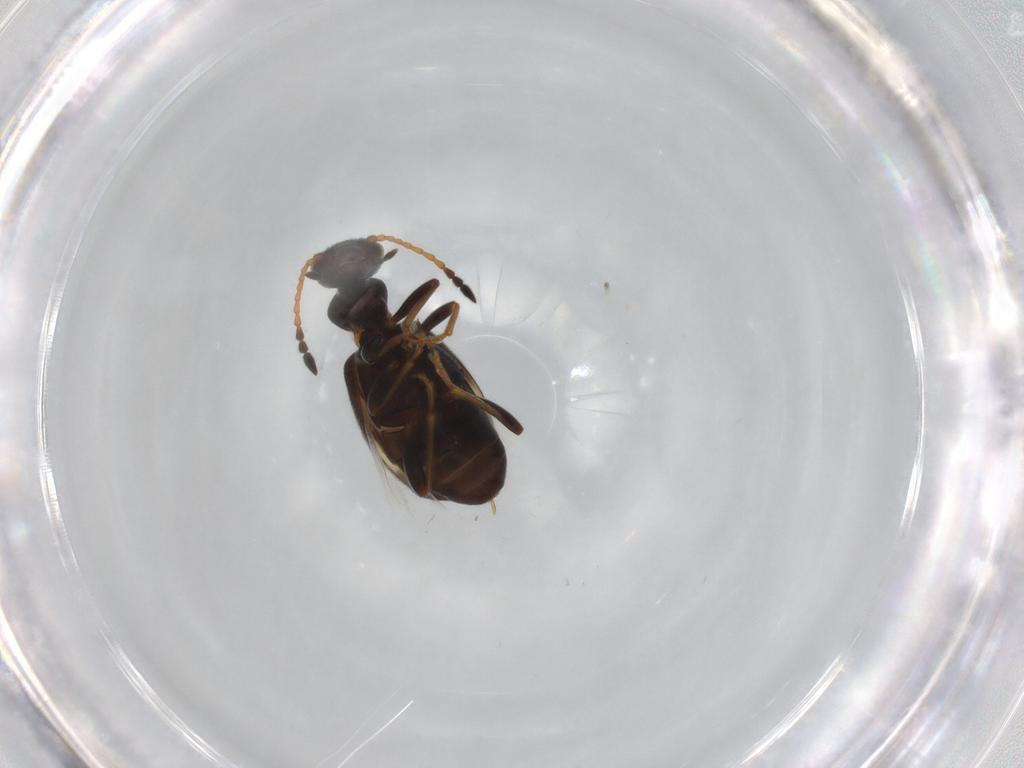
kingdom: Animalia
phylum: Arthropoda
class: Insecta
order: Coleoptera
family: Anthicidae
